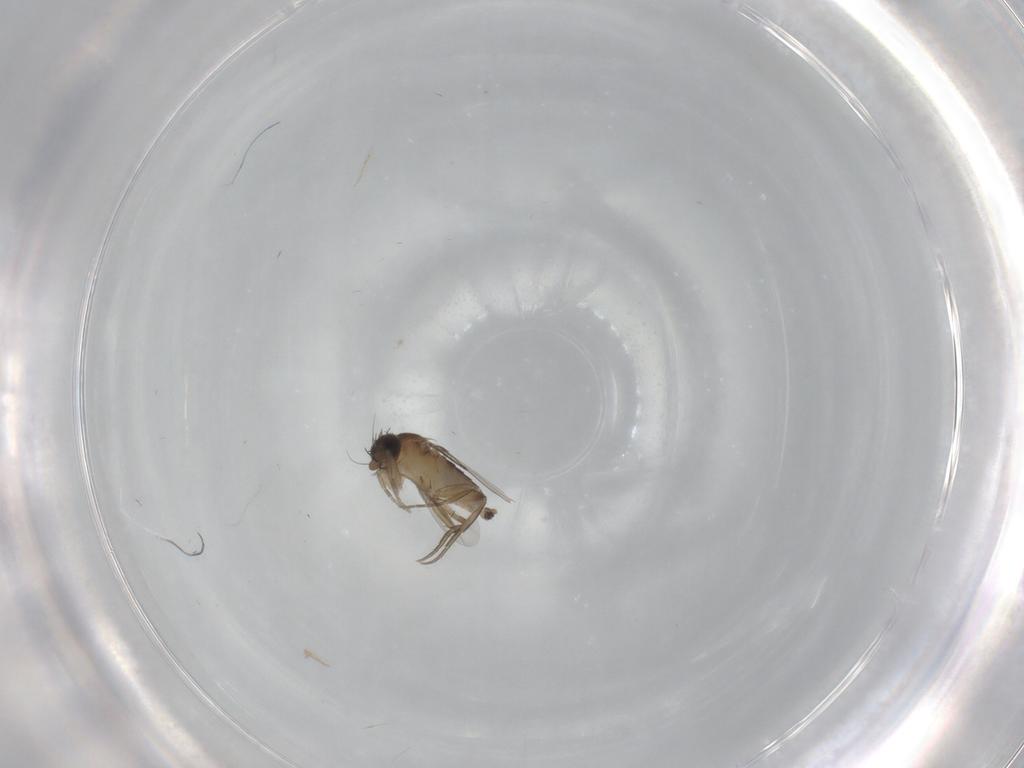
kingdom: Animalia
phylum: Arthropoda
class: Insecta
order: Diptera
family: Phoridae
